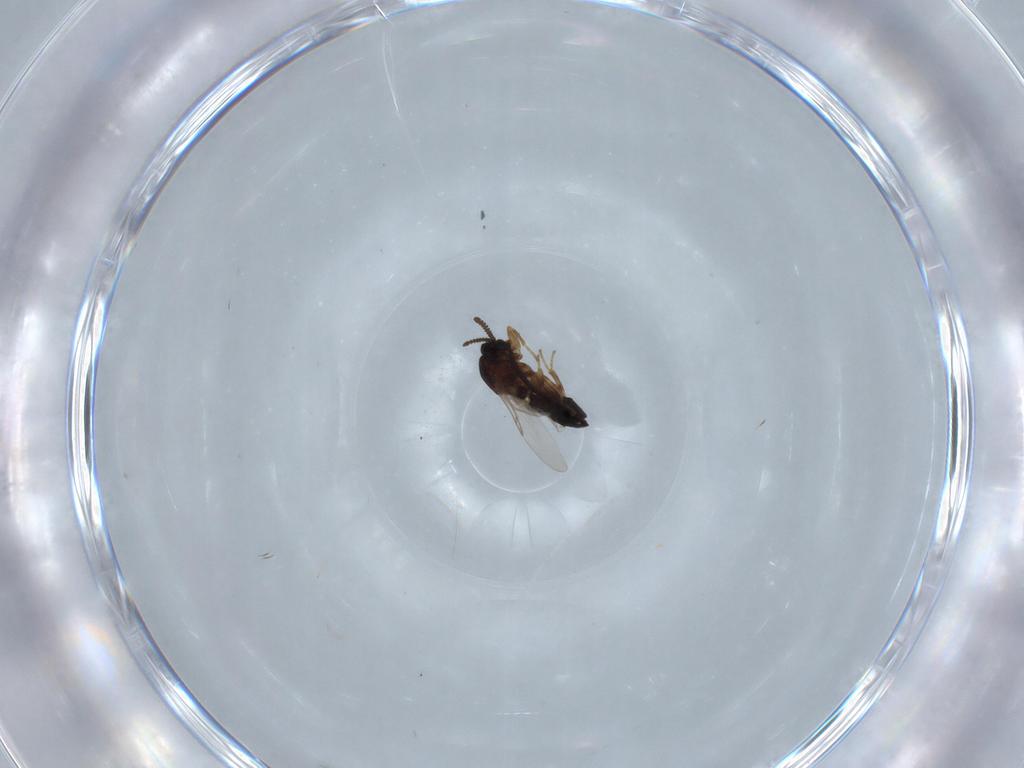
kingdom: Animalia
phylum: Arthropoda
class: Insecta
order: Diptera
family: Dolichopodidae
